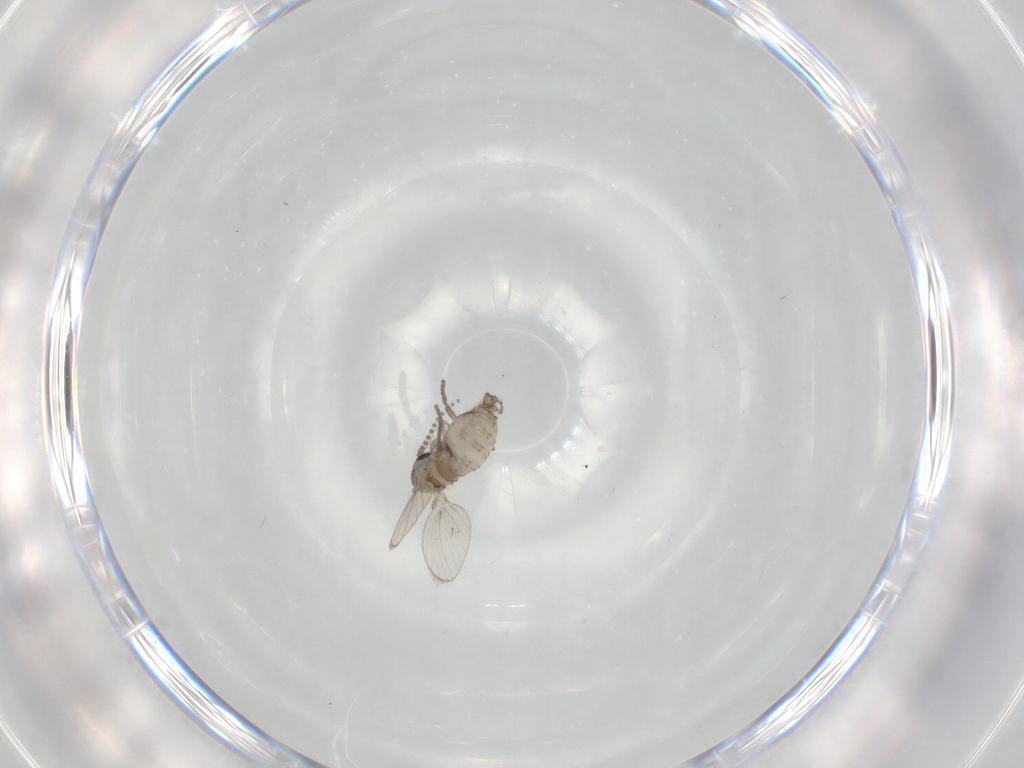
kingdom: Animalia
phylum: Arthropoda
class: Insecta
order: Diptera
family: Psychodidae
